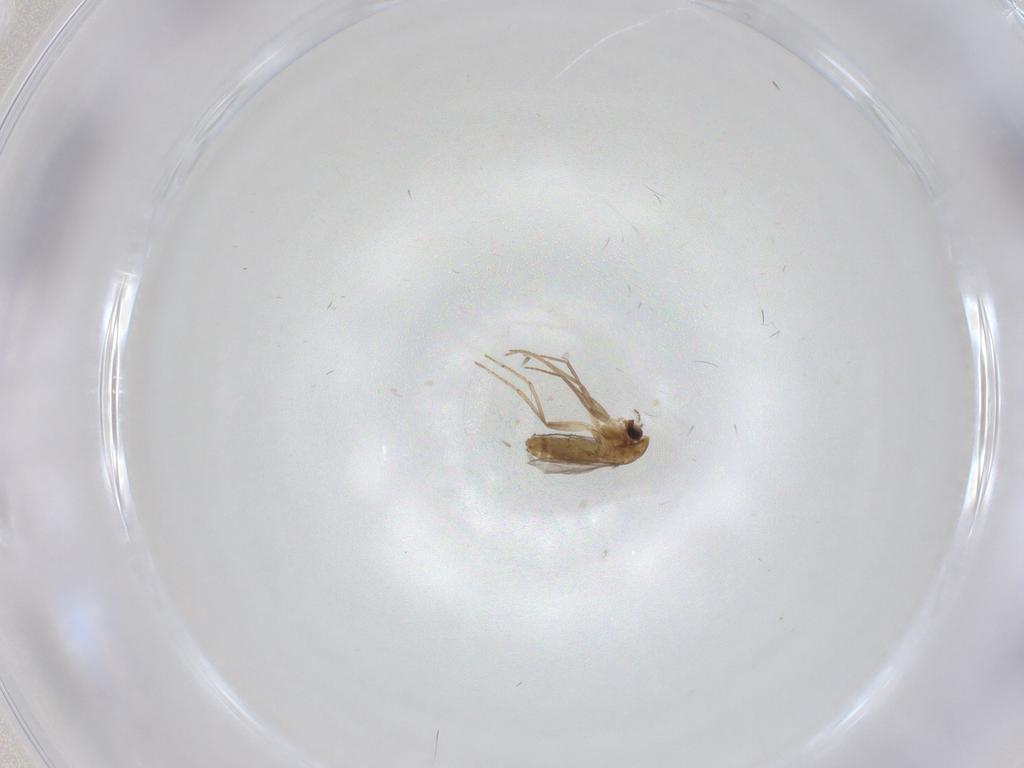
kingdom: Animalia
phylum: Arthropoda
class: Insecta
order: Diptera
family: Chironomidae
